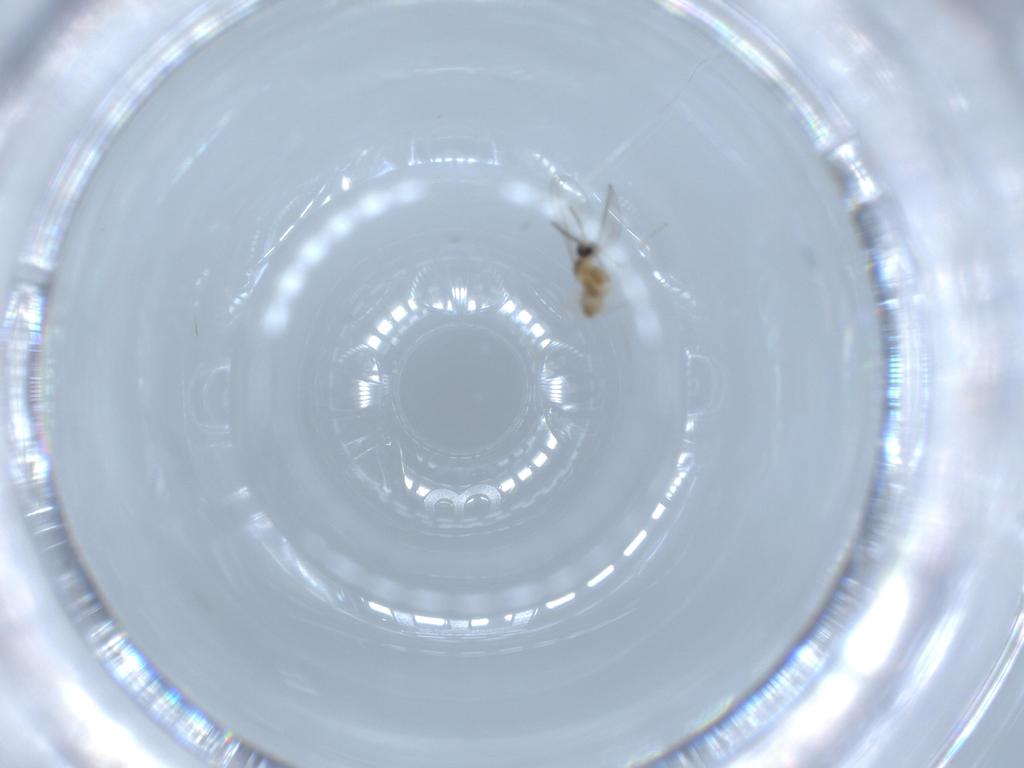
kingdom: Animalia
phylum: Arthropoda
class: Insecta
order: Diptera
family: Cecidomyiidae
